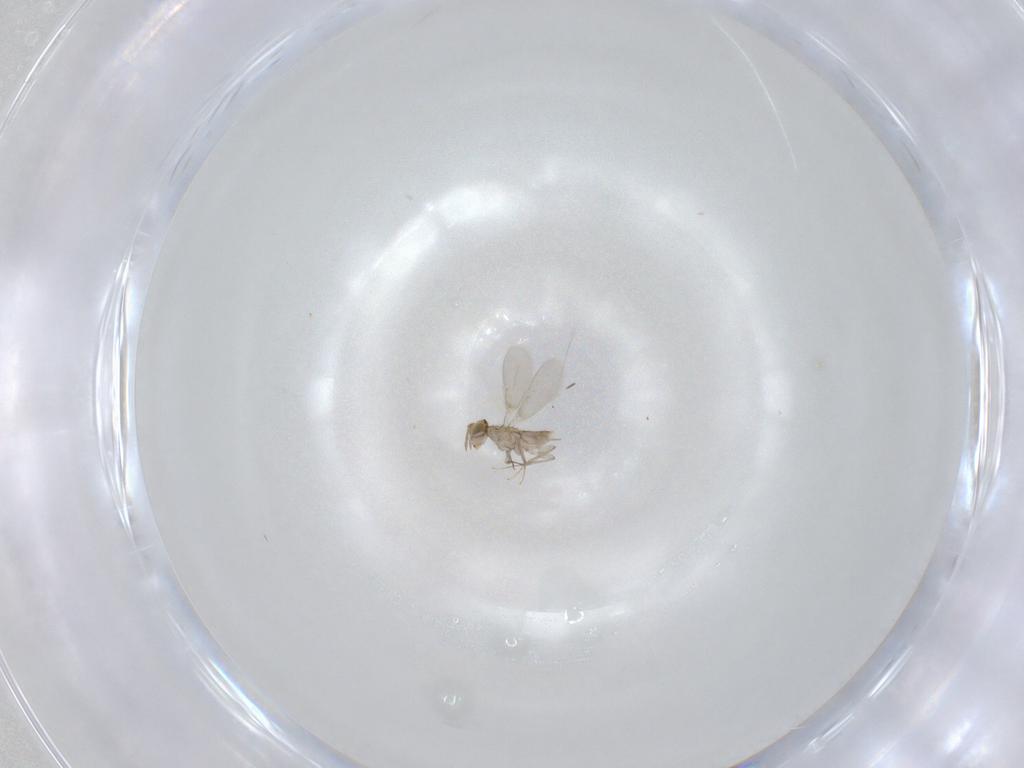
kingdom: Animalia
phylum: Arthropoda
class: Insecta
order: Hymenoptera
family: Aphelinidae
